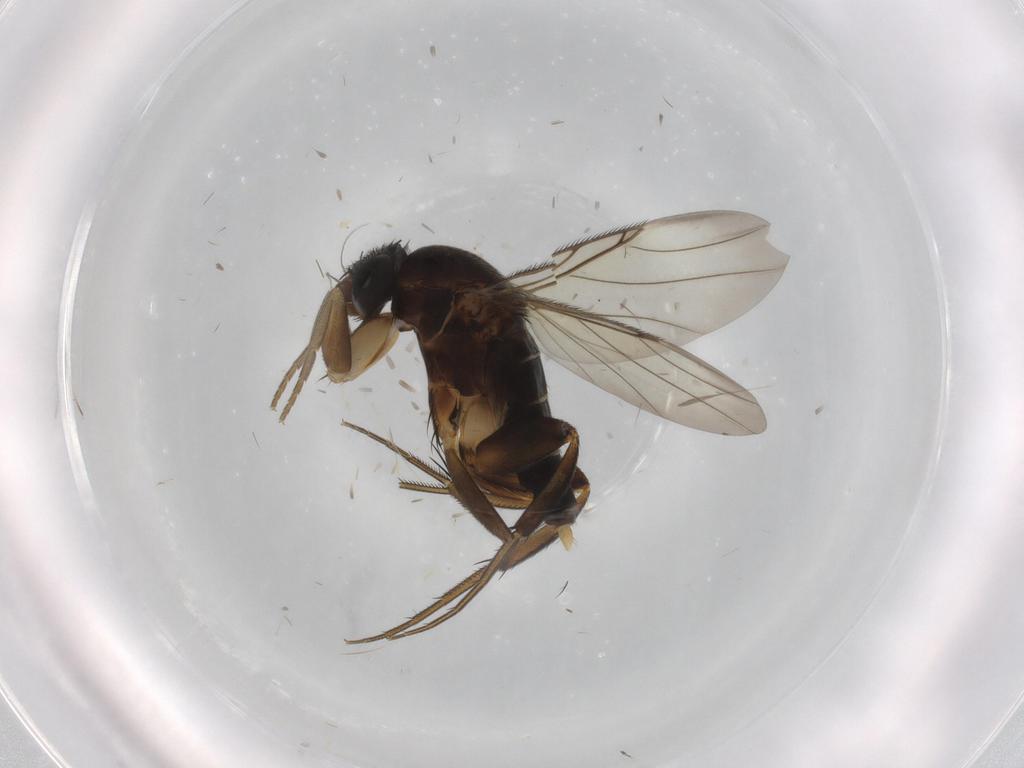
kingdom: Animalia
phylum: Arthropoda
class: Insecta
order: Diptera
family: Phoridae
